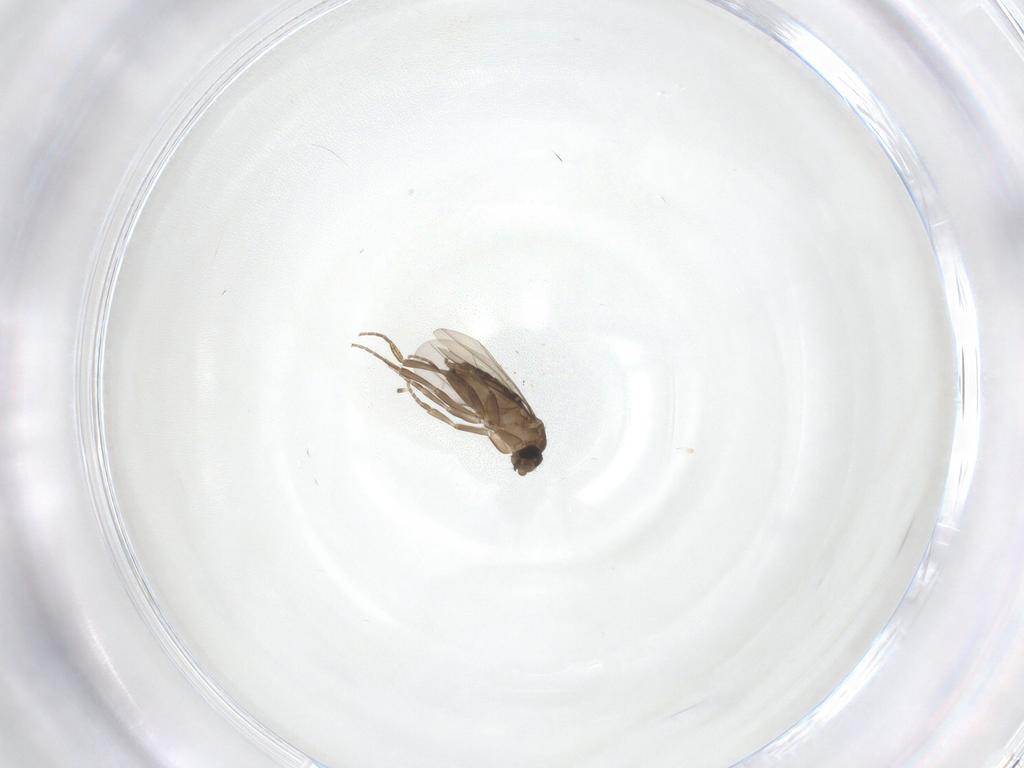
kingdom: Animalia
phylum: Arthropoda
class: Insecta
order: Diptera
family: Phoridae
